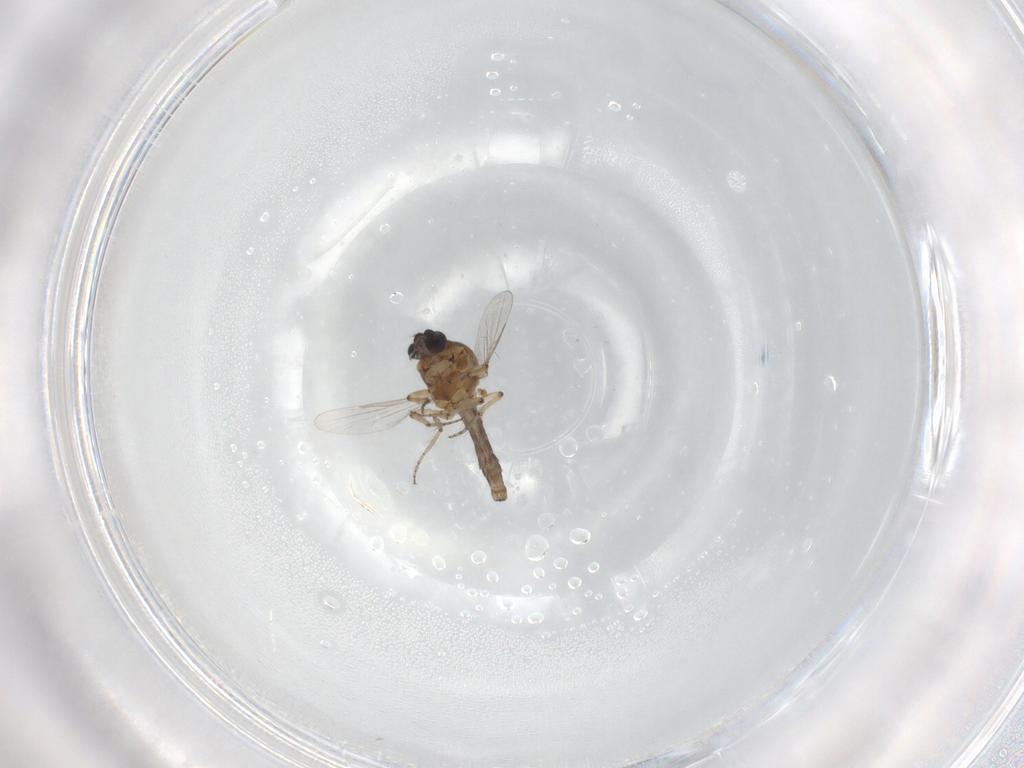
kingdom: Animalia
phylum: Arthropoda
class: Insecta
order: Diptera
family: Ceratopogonidae
